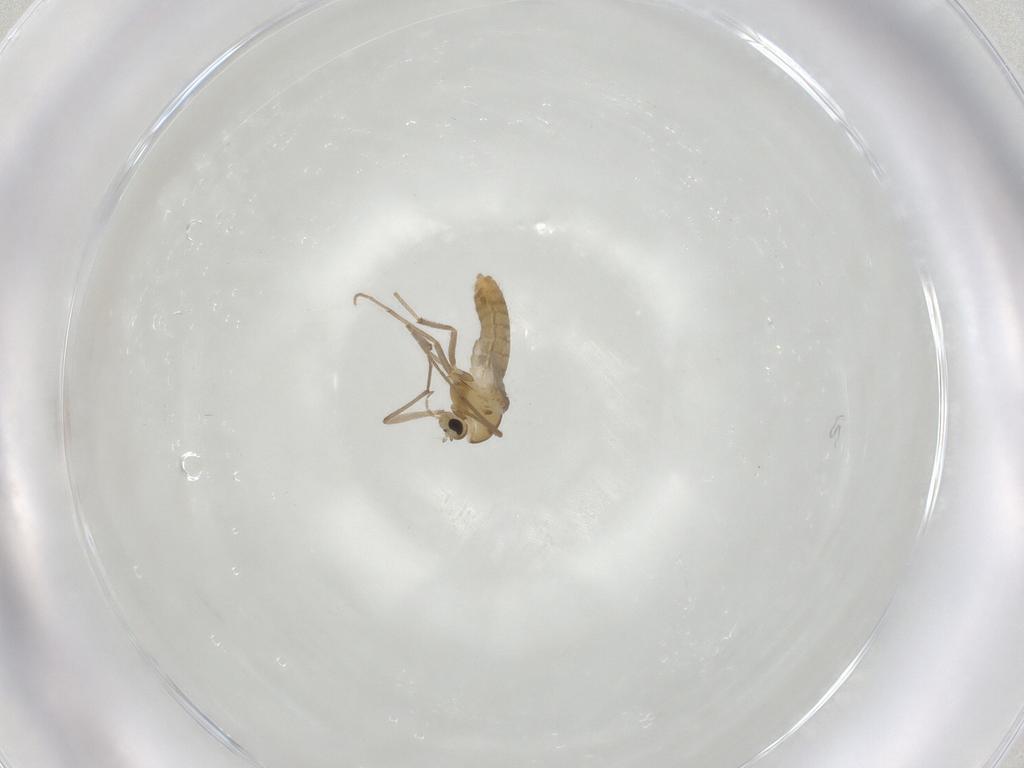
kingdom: Animalia
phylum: Arthropoda
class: Insecta
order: Diptera
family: Chironomidae
